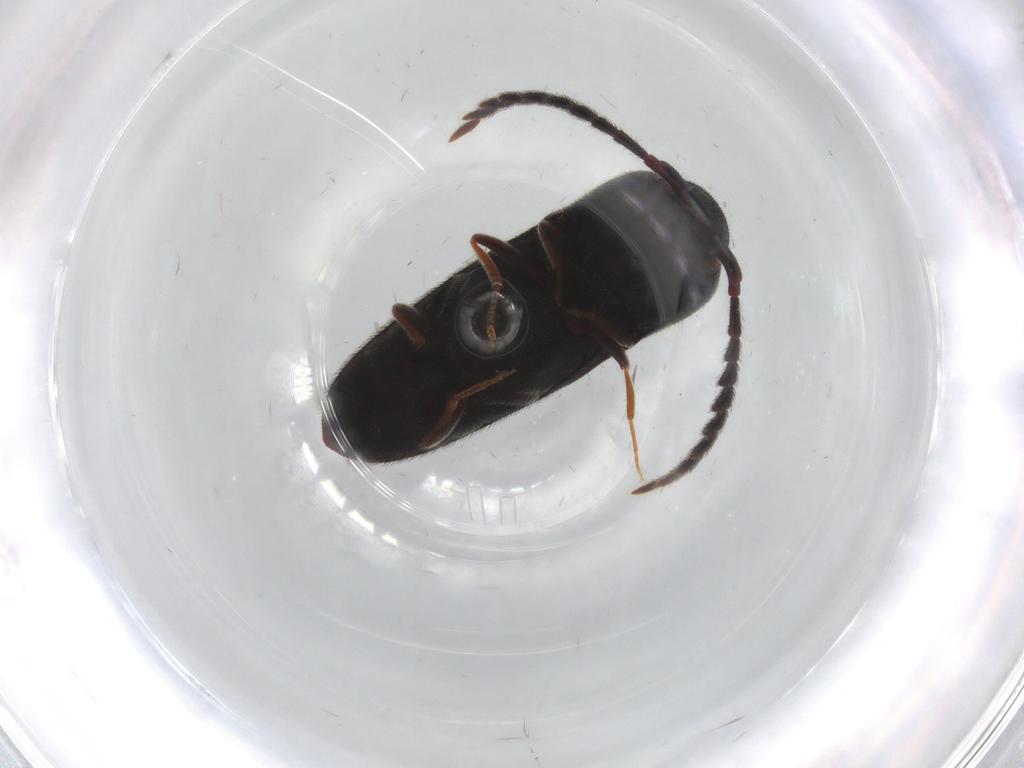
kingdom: Animalia
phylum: Arthropoda
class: Insecta
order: Coleoptera
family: Eucnemidae
